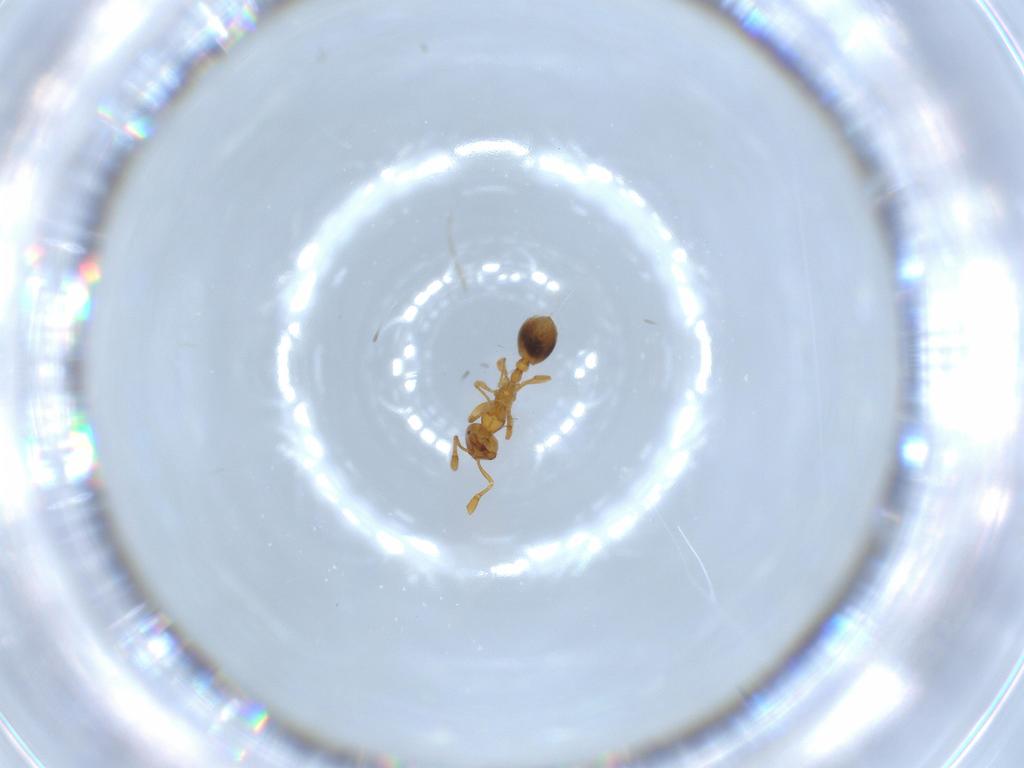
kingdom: Animalia
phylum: Arthropoda
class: Insecta
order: Hymenoptera
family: Formicidae
